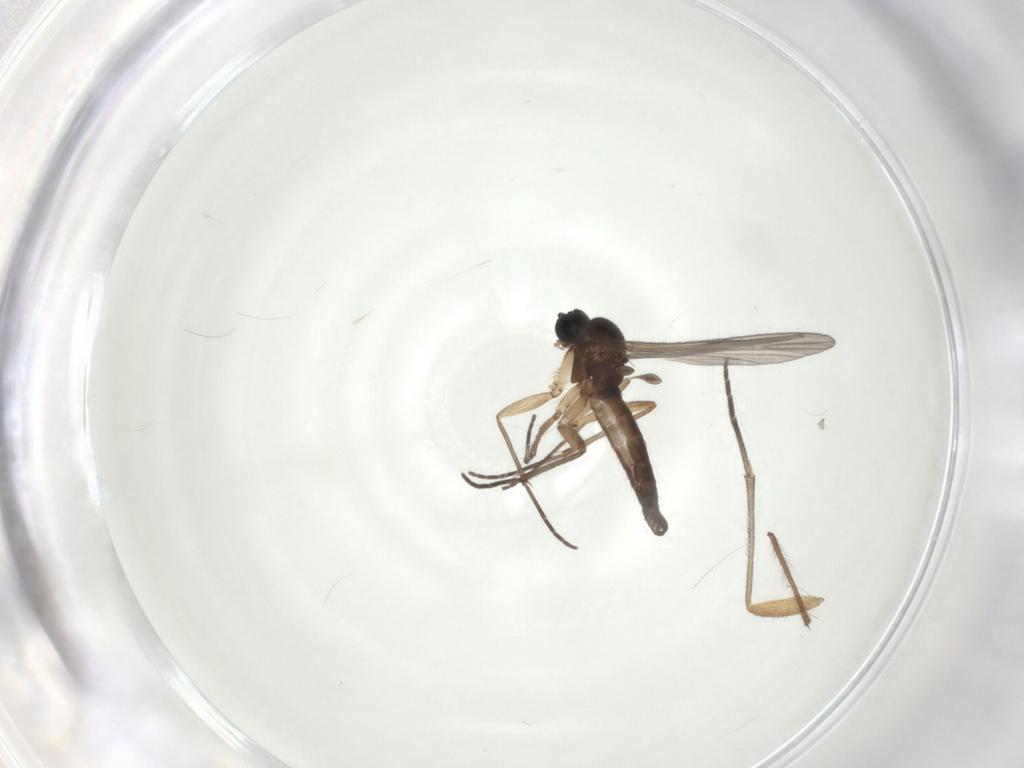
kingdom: Animalia
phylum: Arthropoda
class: Insecta
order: Diptera
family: Sciaridae
